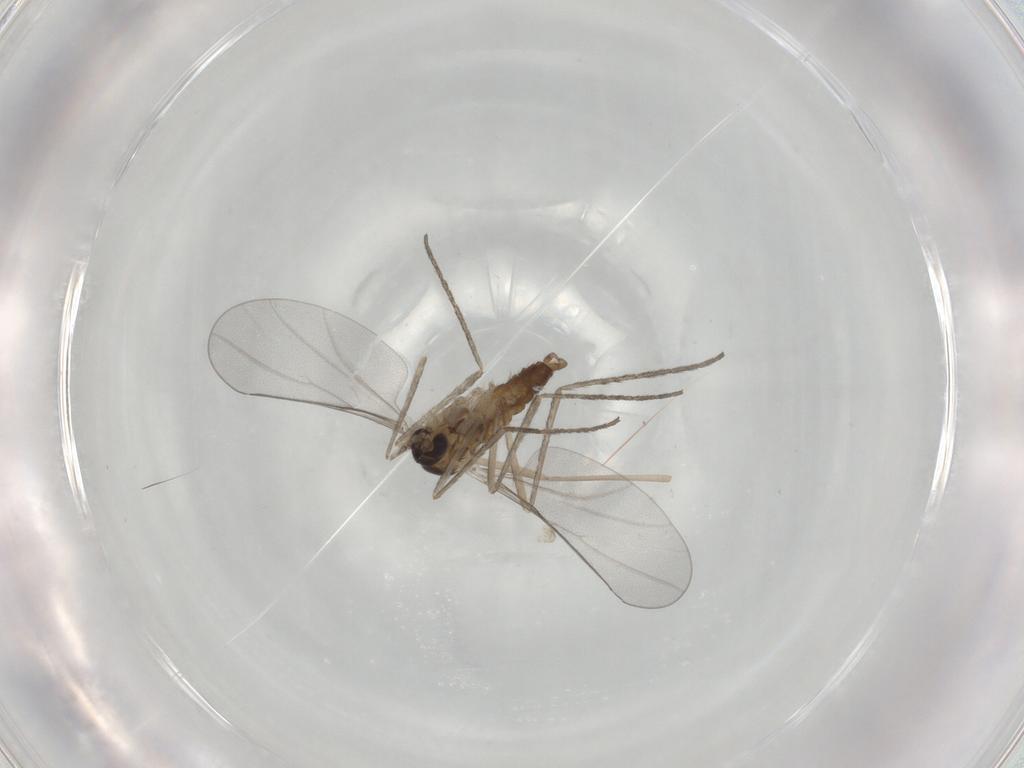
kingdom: Animalia
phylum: Arthropoda
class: Insecta
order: Diptera
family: Cecidomyiidae
